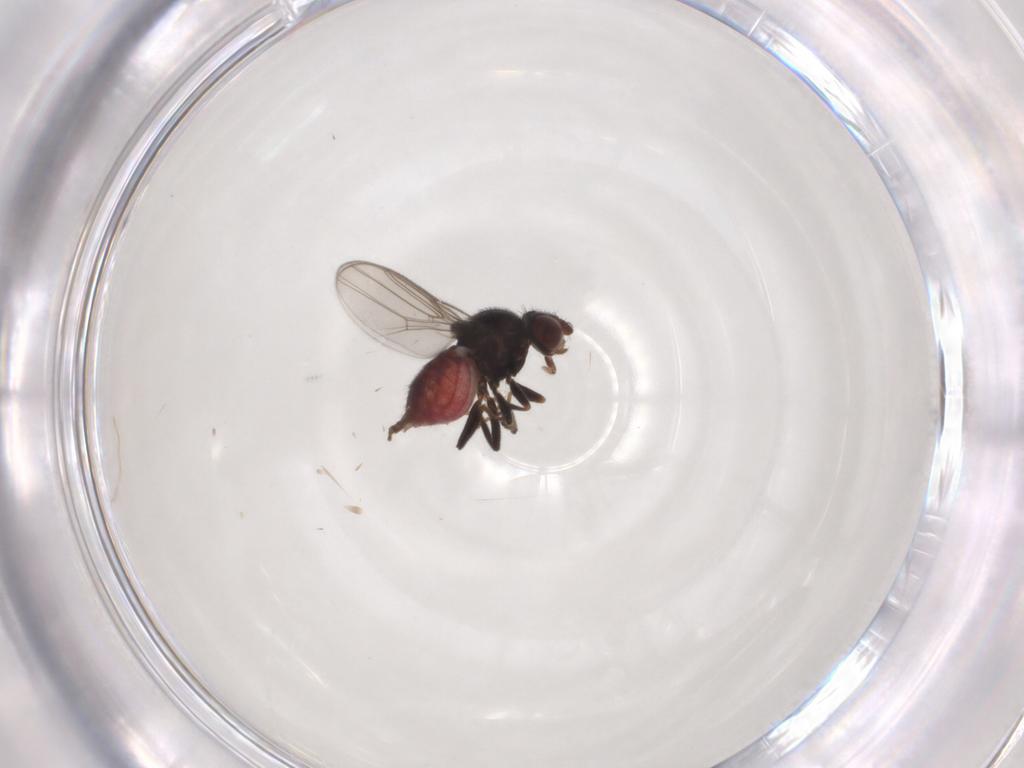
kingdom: Animalia
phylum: Arthropoda
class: Insecta
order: Diptera
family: Chloropidae
